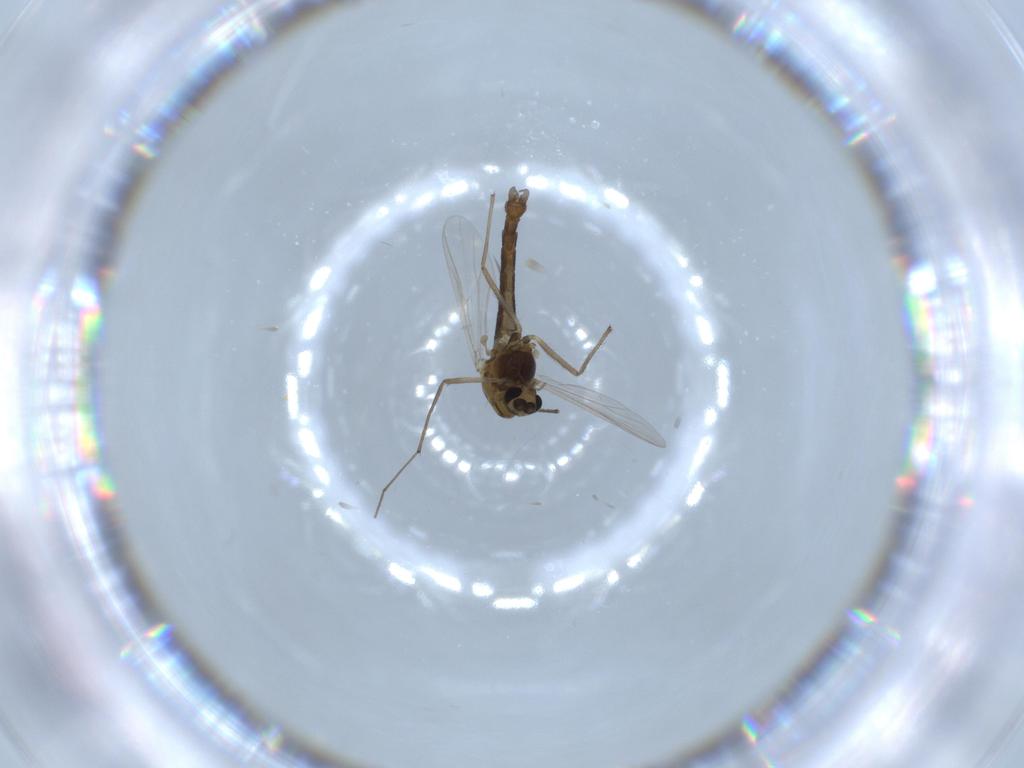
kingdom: Animalia
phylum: Arthropoda
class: Insecta
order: Diptera
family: Chironomidae
